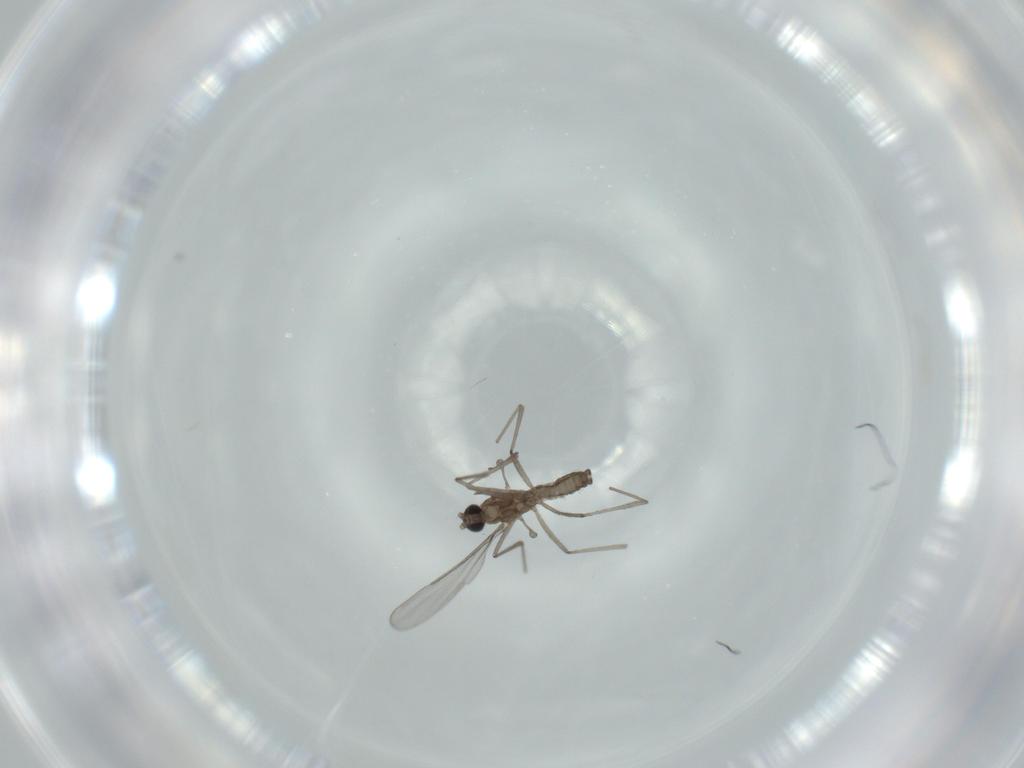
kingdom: Animalia
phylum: Arthropoda
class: Insecta
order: Diptera
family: Cecidomyiidae
